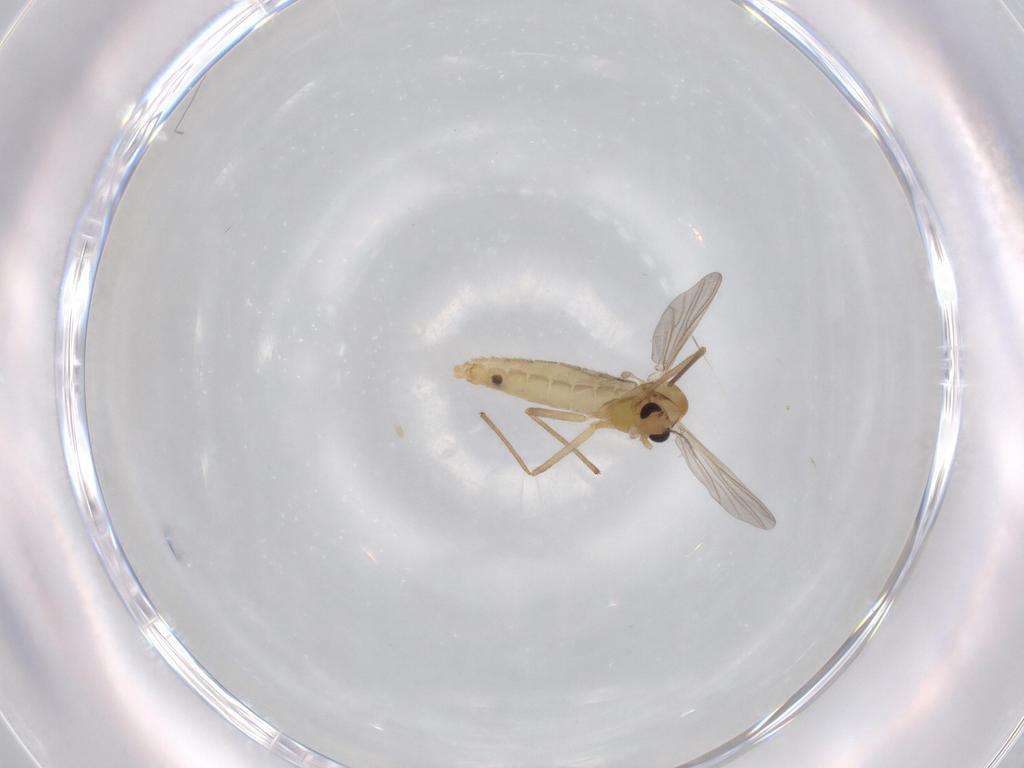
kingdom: Animalia
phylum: Arthropoda
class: Insecta
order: Diptera
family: Chironomidae
